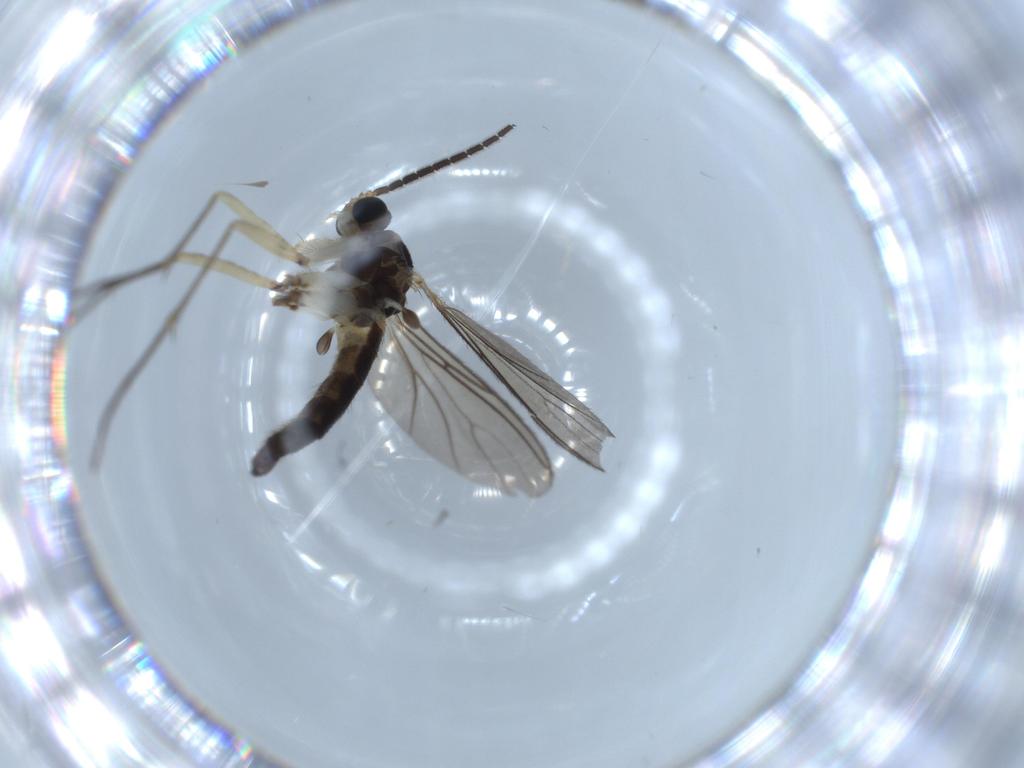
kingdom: Animalia
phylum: Arthropoda
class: Insecta
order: Diptera
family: Sciaridae
